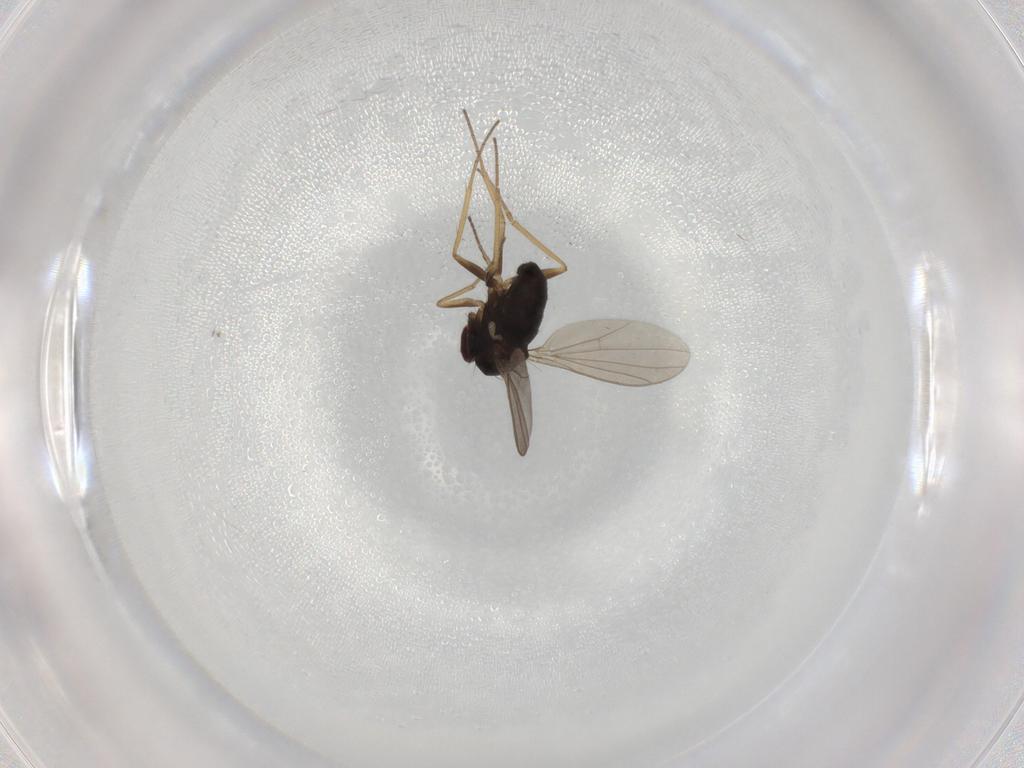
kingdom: Animalia
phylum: Arthropoda
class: Insecta
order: Diptera
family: Dolichopodidae
